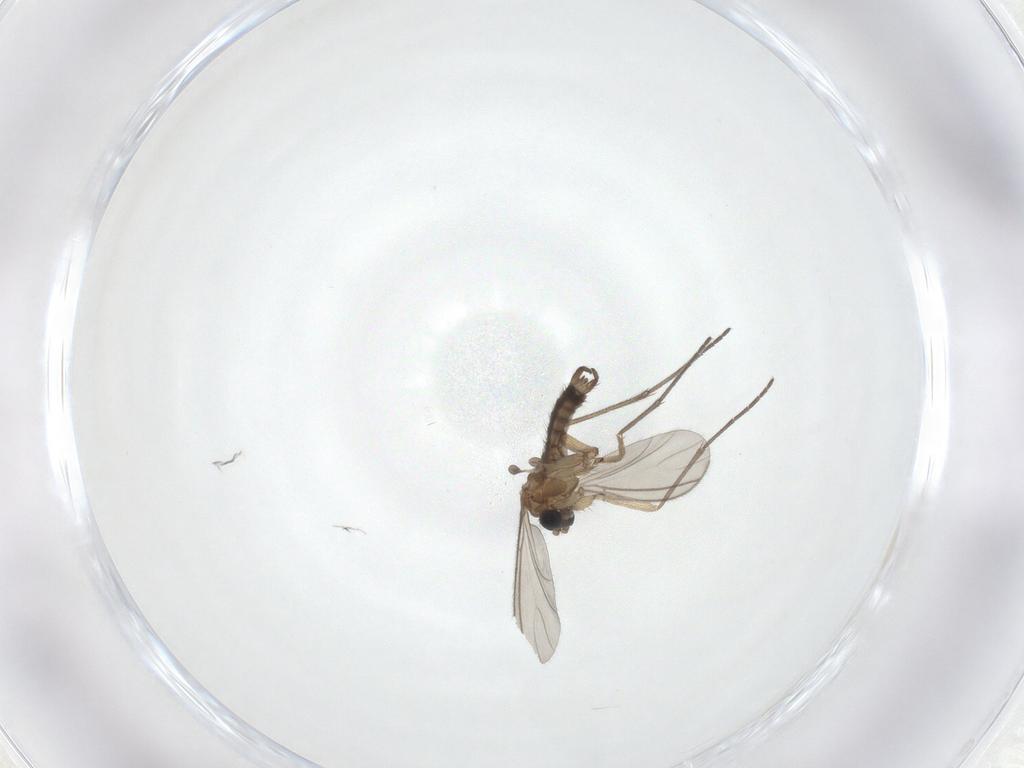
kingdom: Animalia
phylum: Arthropoda
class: Insecta
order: Diptera
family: Sciaridae
